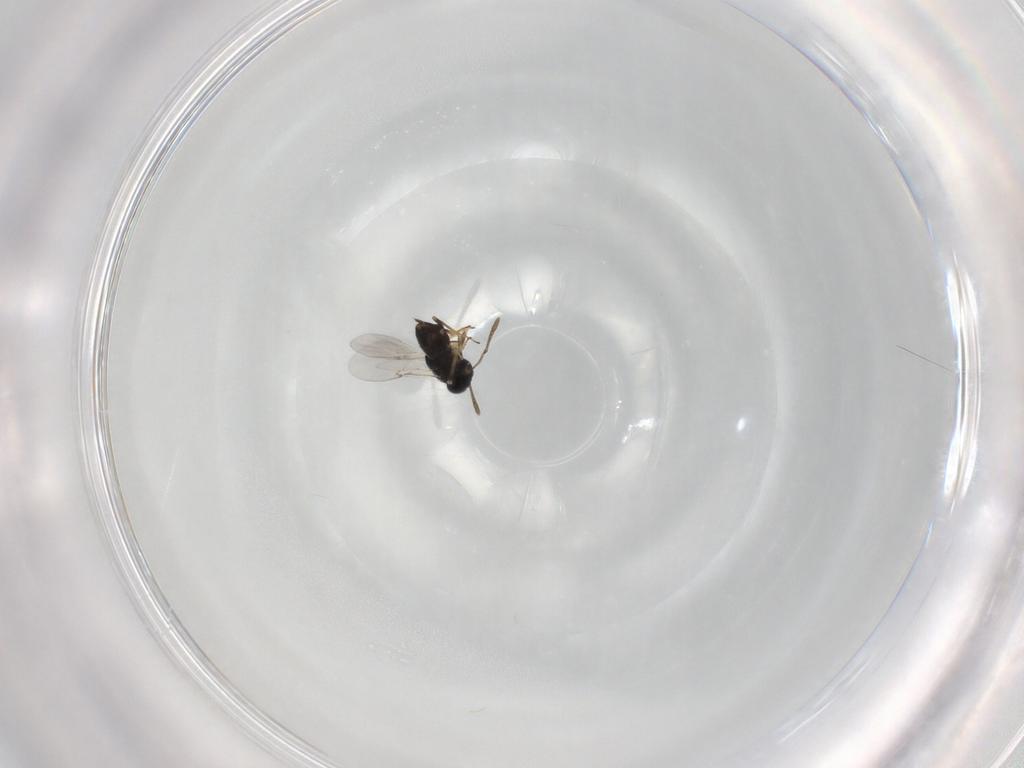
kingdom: Animalia
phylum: Arthropoda
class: Insecta
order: Hymenoptera
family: Encyrtidae
